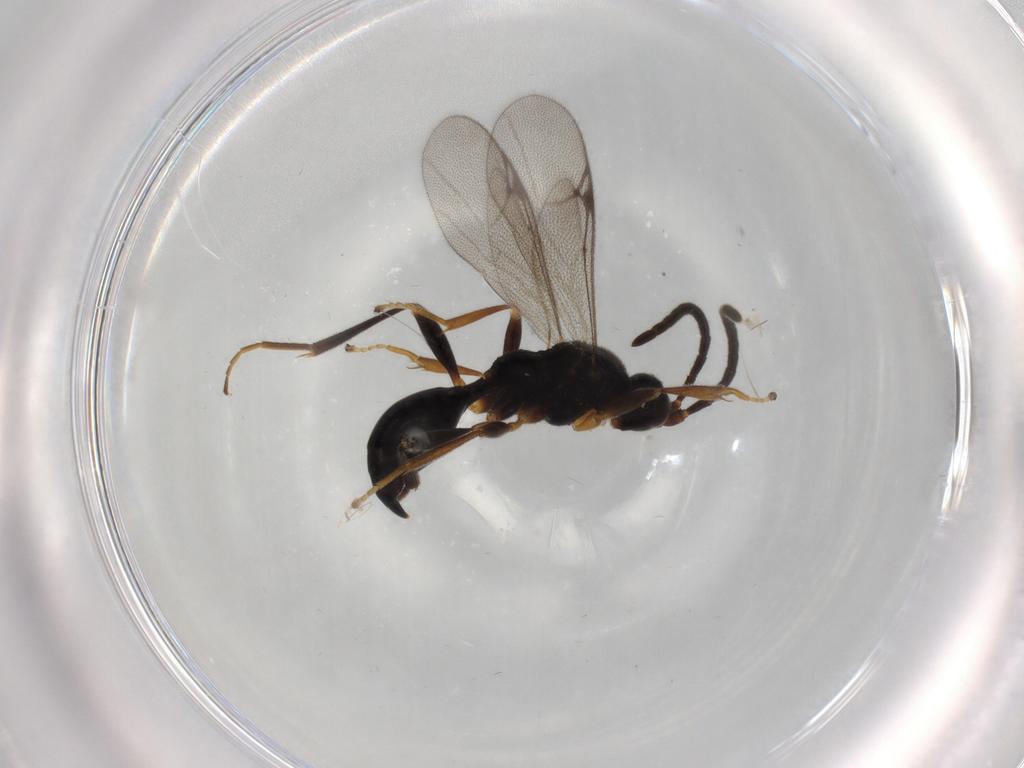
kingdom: Animalia
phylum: Arthropoda
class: Insecta
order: Hymenoptera
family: Proctotrupidae
